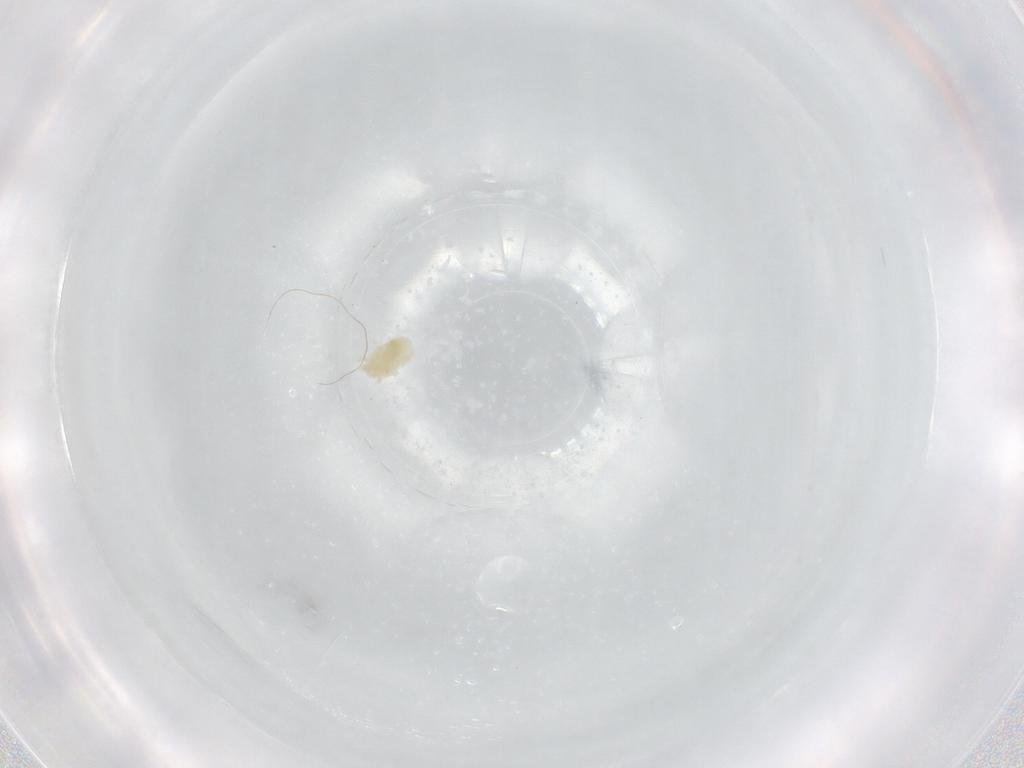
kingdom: Animalia
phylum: Arthropoda
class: Arachnida
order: Trombidiformes
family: Eupodidae
